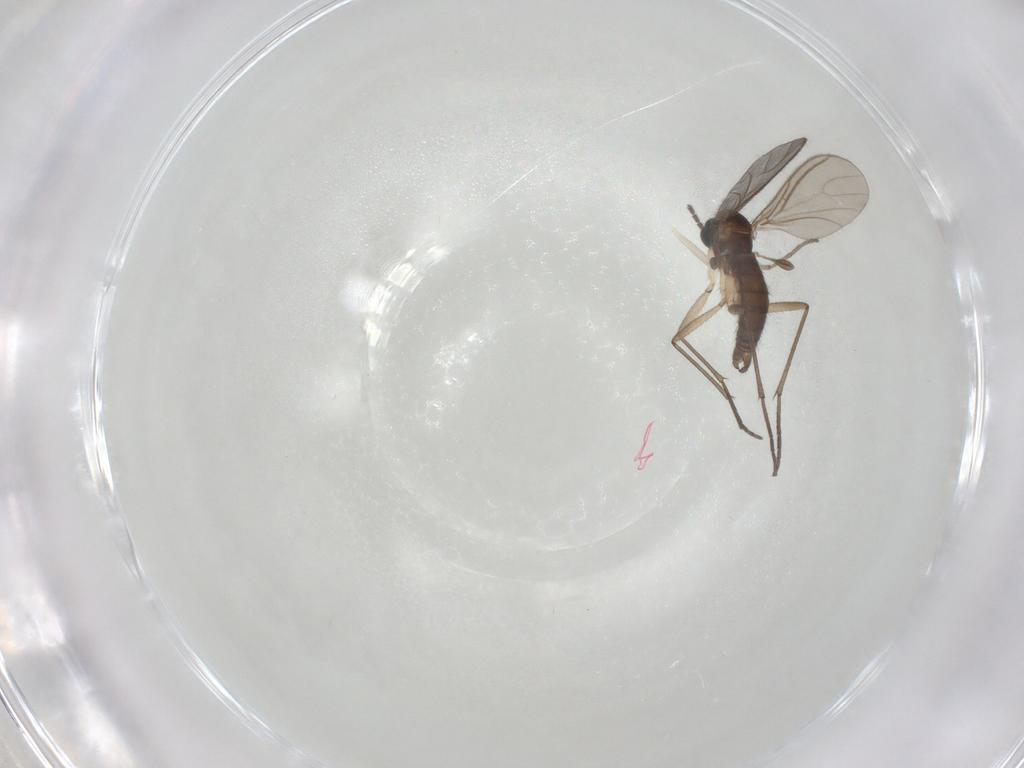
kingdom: Animalia
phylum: Arthropoda
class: Insecta
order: Diptera
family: Sciaridae
